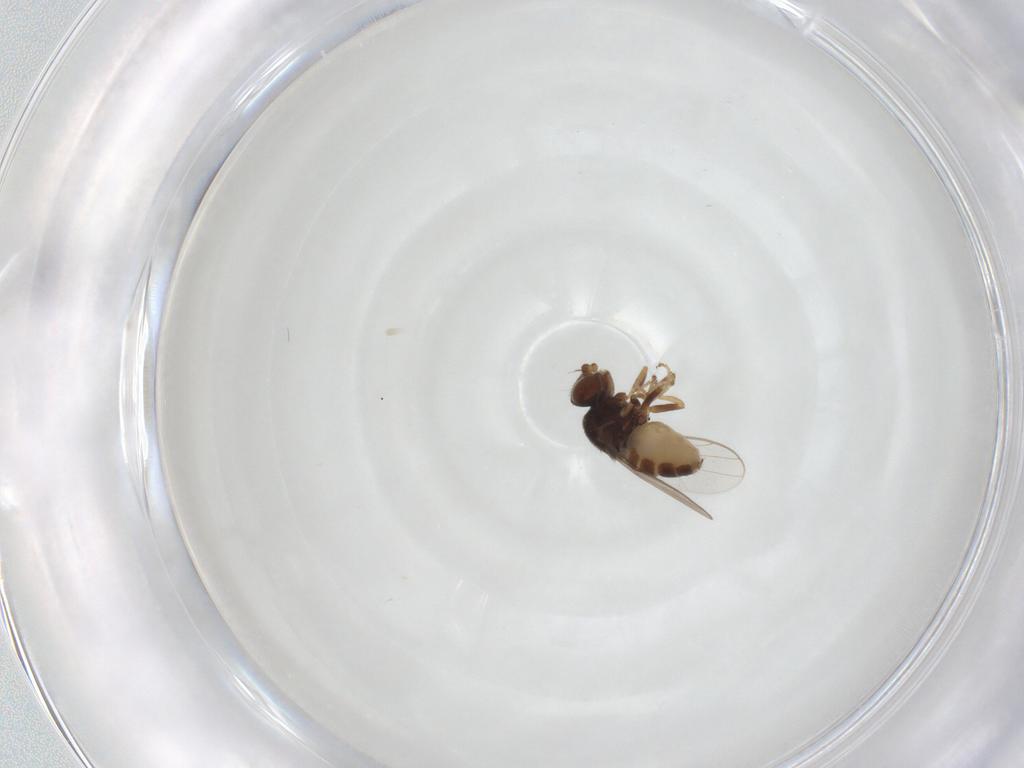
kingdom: Animalia
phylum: Arthropoda
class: Insecta
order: Diptera
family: Chloropidae
